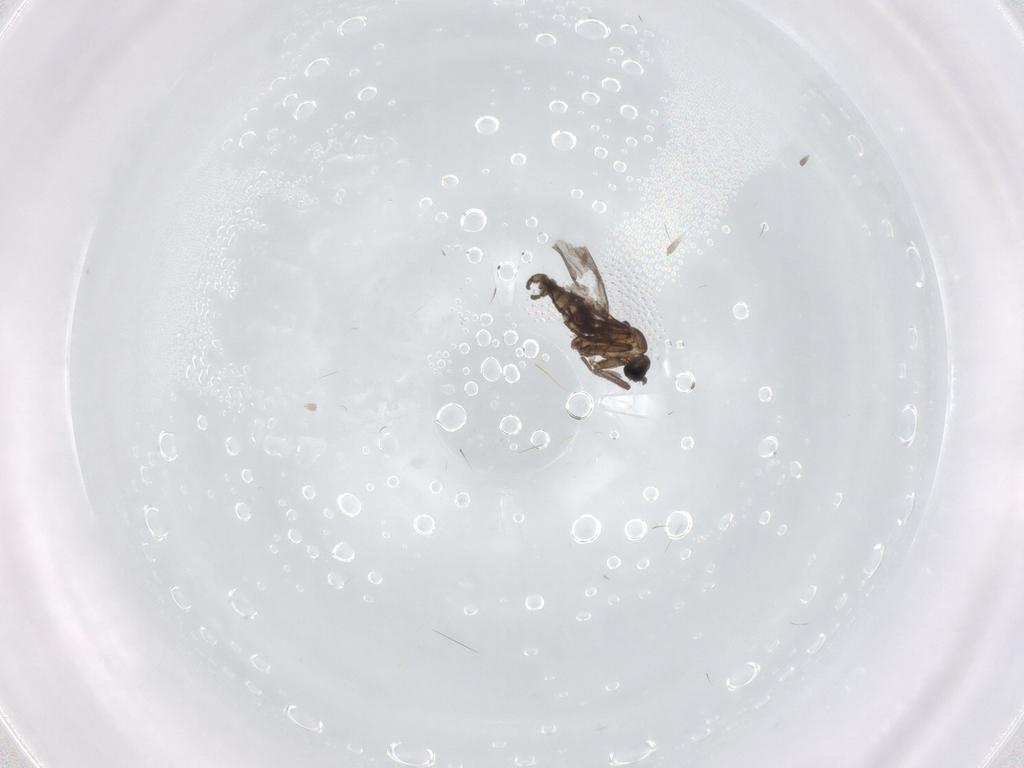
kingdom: Animalia
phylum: Arthropoda
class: Insecta
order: Diptera
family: Sciaridae
